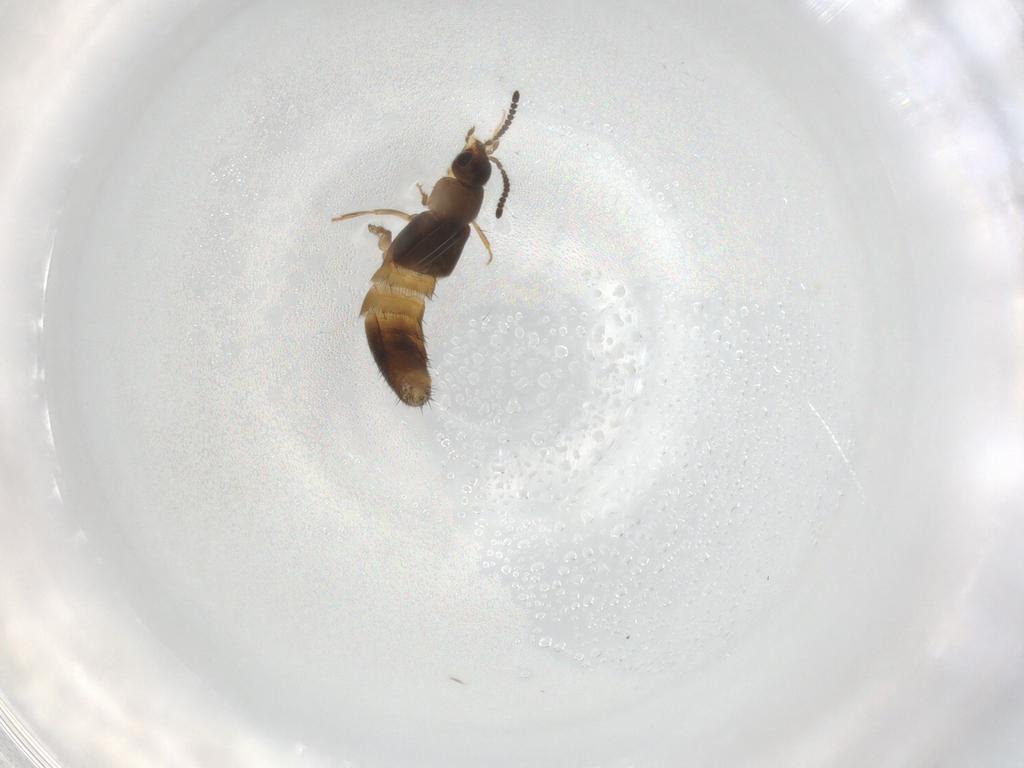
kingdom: Animalia
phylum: Arthropoda
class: Insecta
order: Coleoptera
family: Staphylinidae
